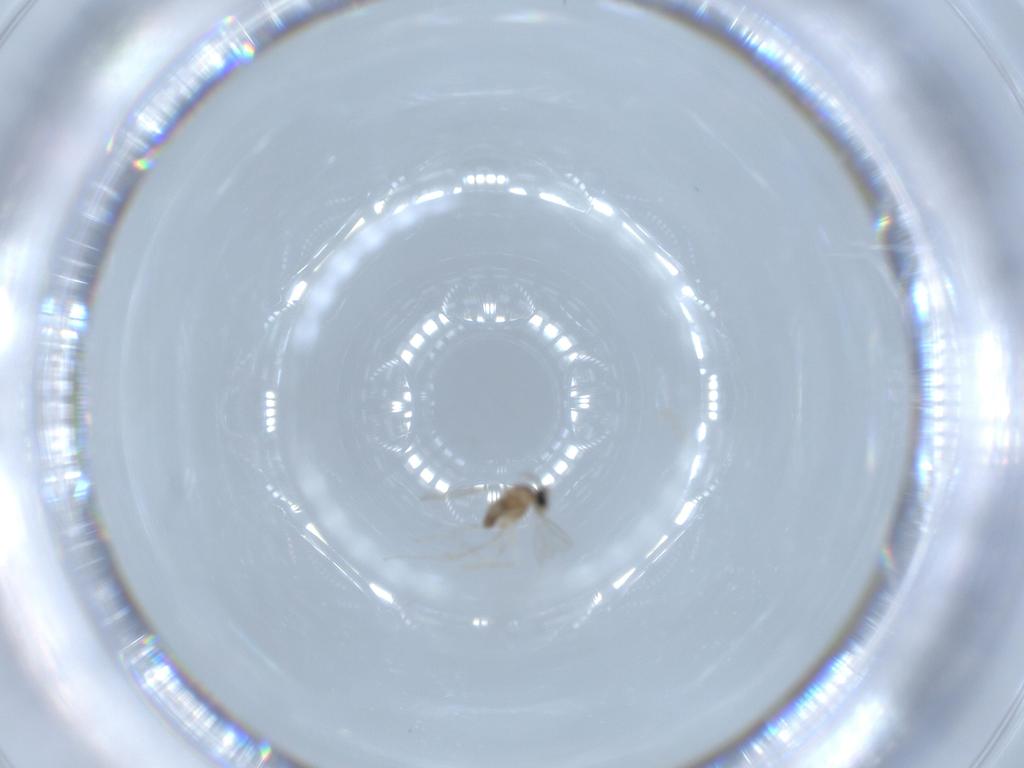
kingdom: Animalia
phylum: Arthropoda
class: Insecta
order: Diptera
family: Cecidomyiidae
